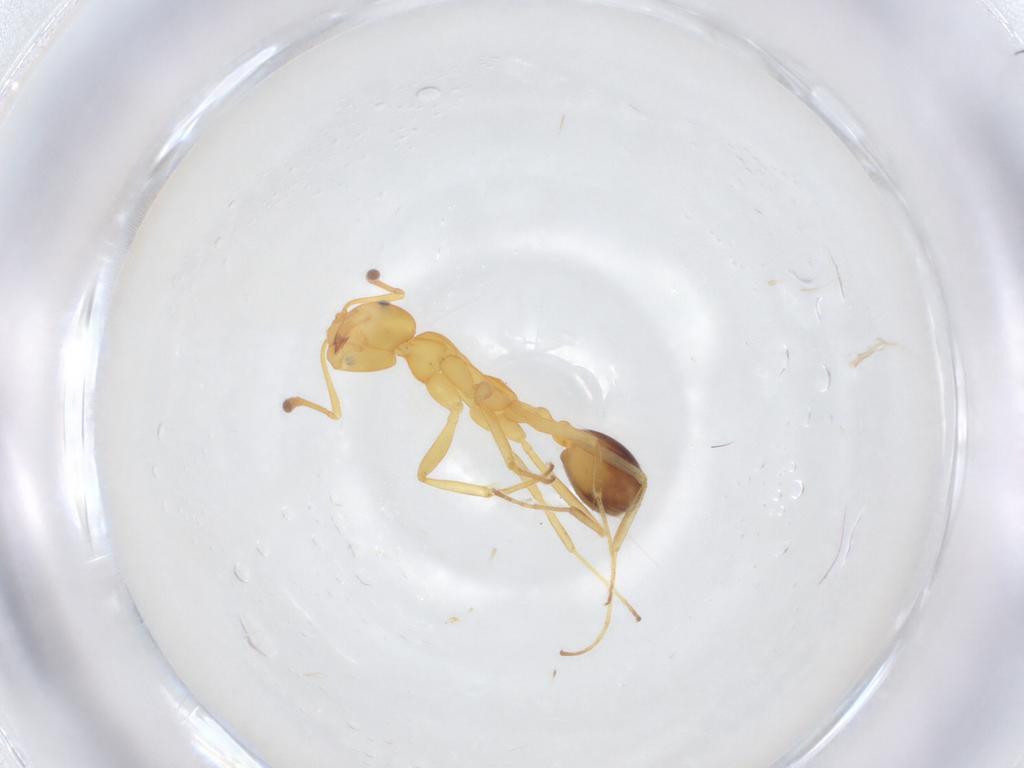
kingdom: Animalia
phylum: Arthropoda
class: Insecta
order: Hymenoptera
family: Formicidae
